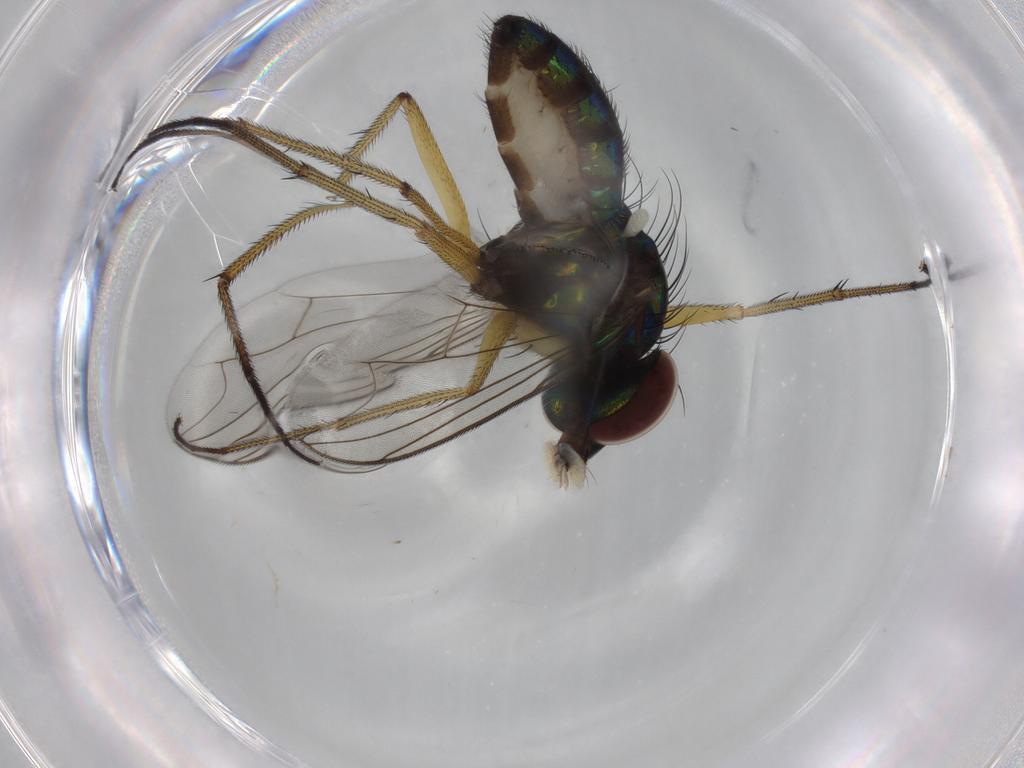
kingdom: Animalia
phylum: Arthropoda
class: Insecta
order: Diptera
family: Dolichopodidae
